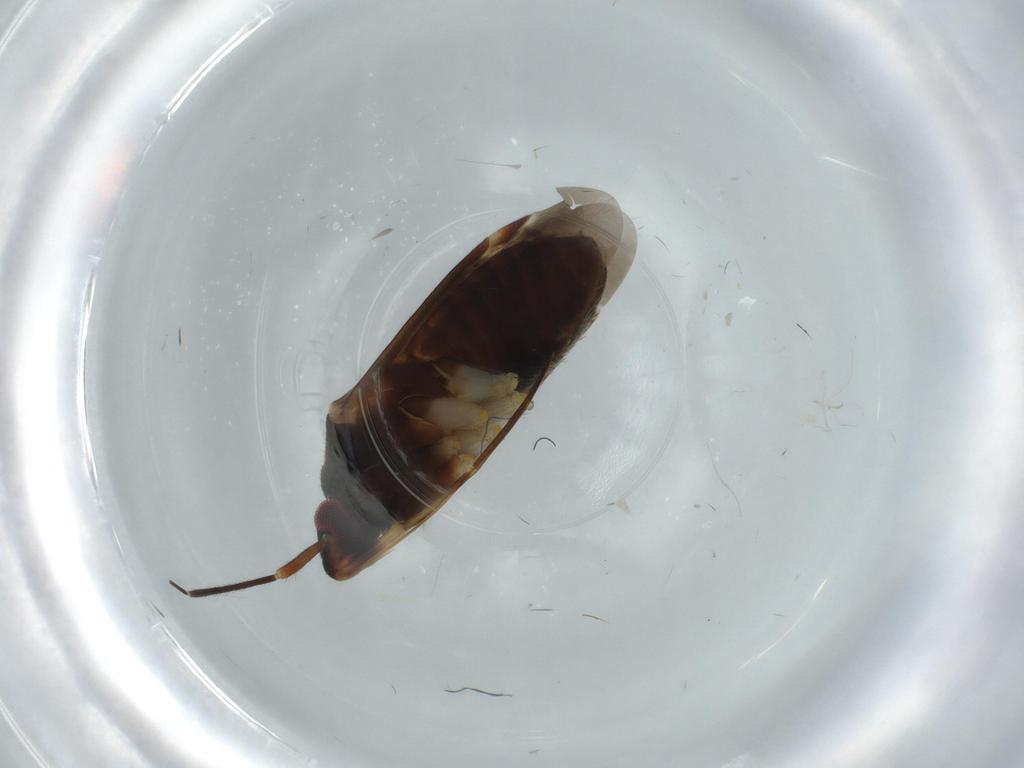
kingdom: Animalia
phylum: Arthropoda
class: Insecta
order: Hemiptera
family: Miridae
